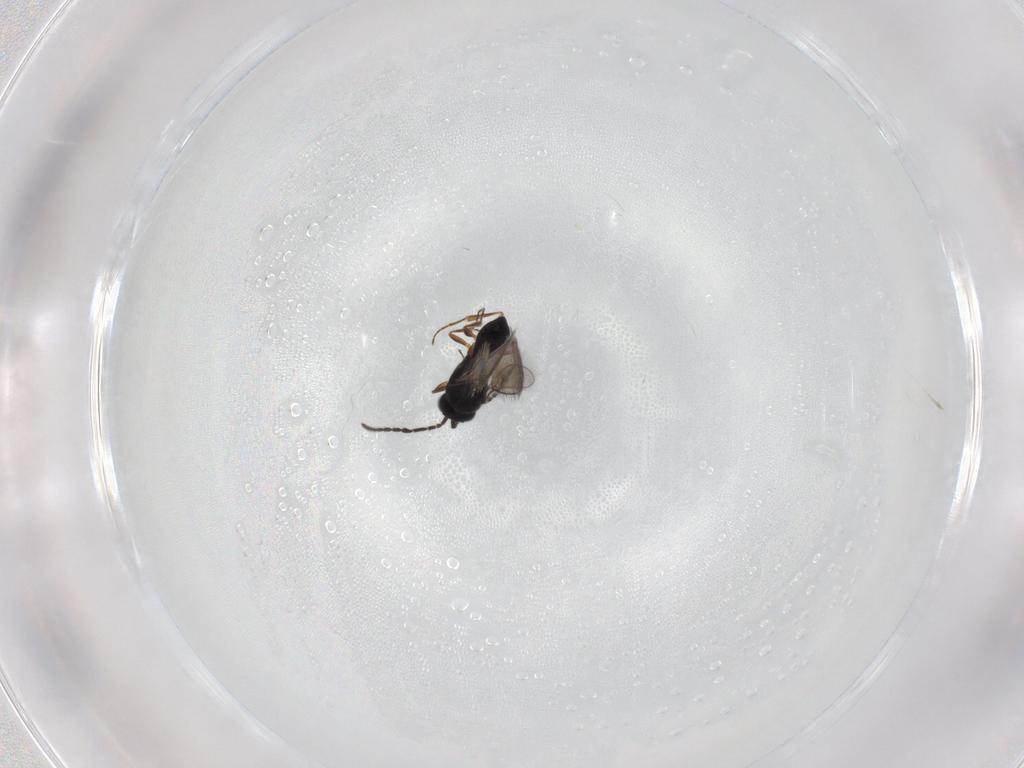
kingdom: Animalia
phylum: Arthropoda
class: Insecta
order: Hymenoptera
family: Scelionidae
